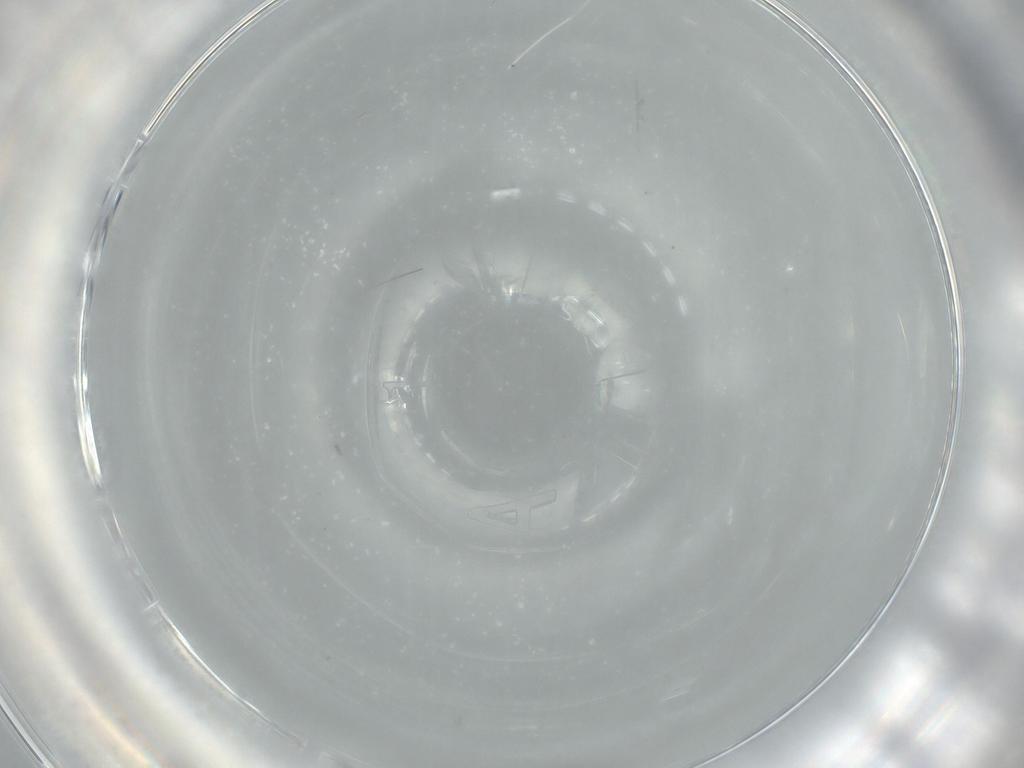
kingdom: Animalia
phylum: Arthropoda
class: Insecta
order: Diptera
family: Cecidomyiidae
